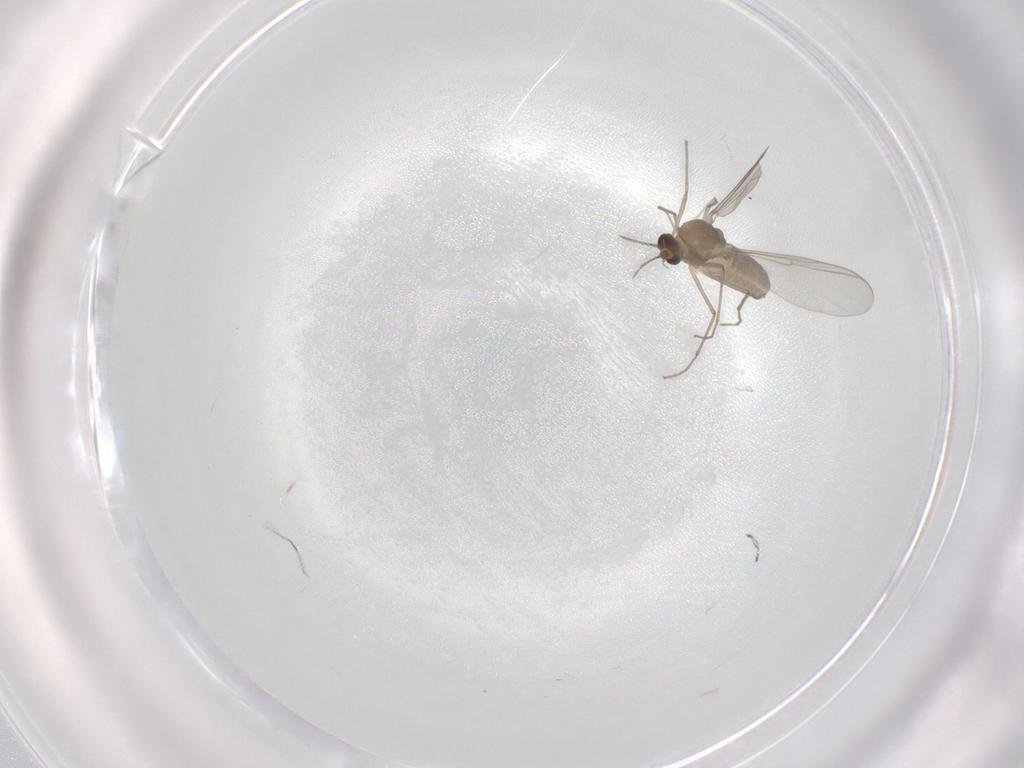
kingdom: Animalia
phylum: Arthropoda
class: Insecta
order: Diptera
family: Chironomidae
